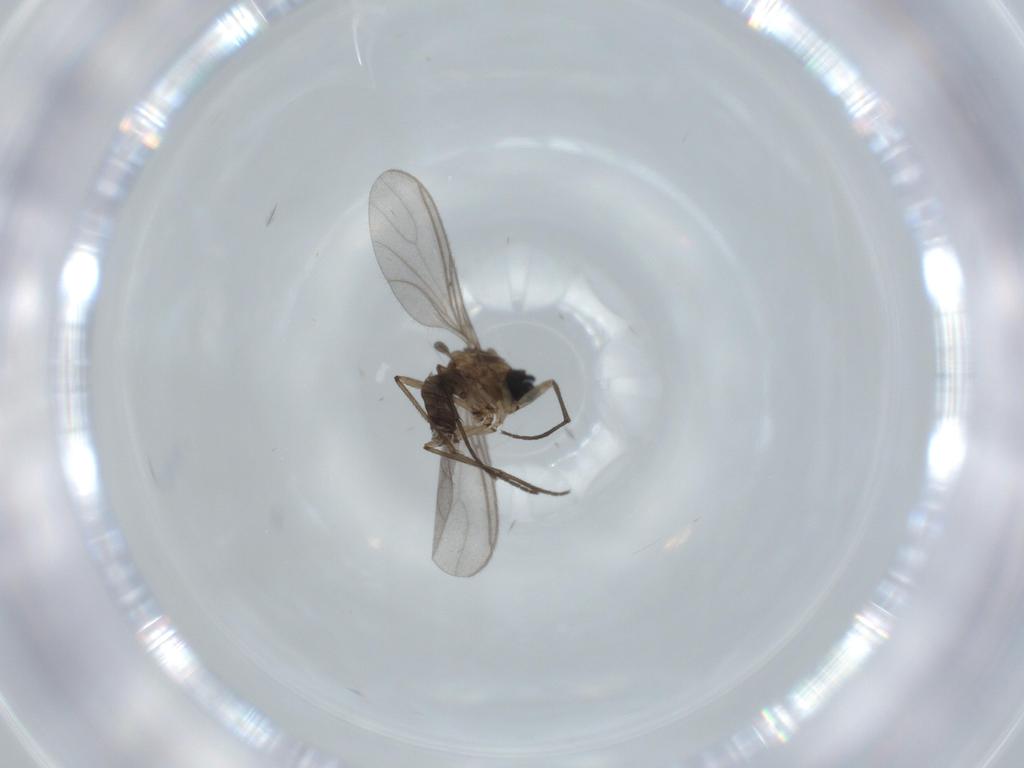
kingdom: Animalia
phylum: Arthropoda
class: Insecta
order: Diptera
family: Sciaridae
